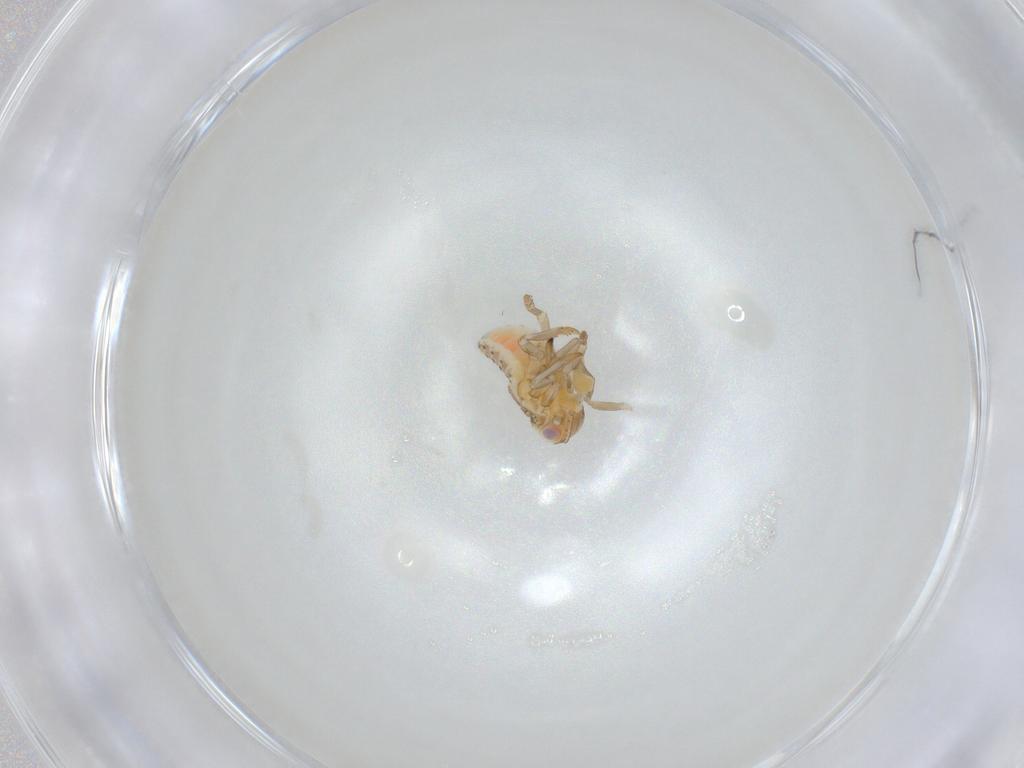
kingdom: Animalia
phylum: Arthropoda
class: Insecta
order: Hemiptera
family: Tropiduchidae
